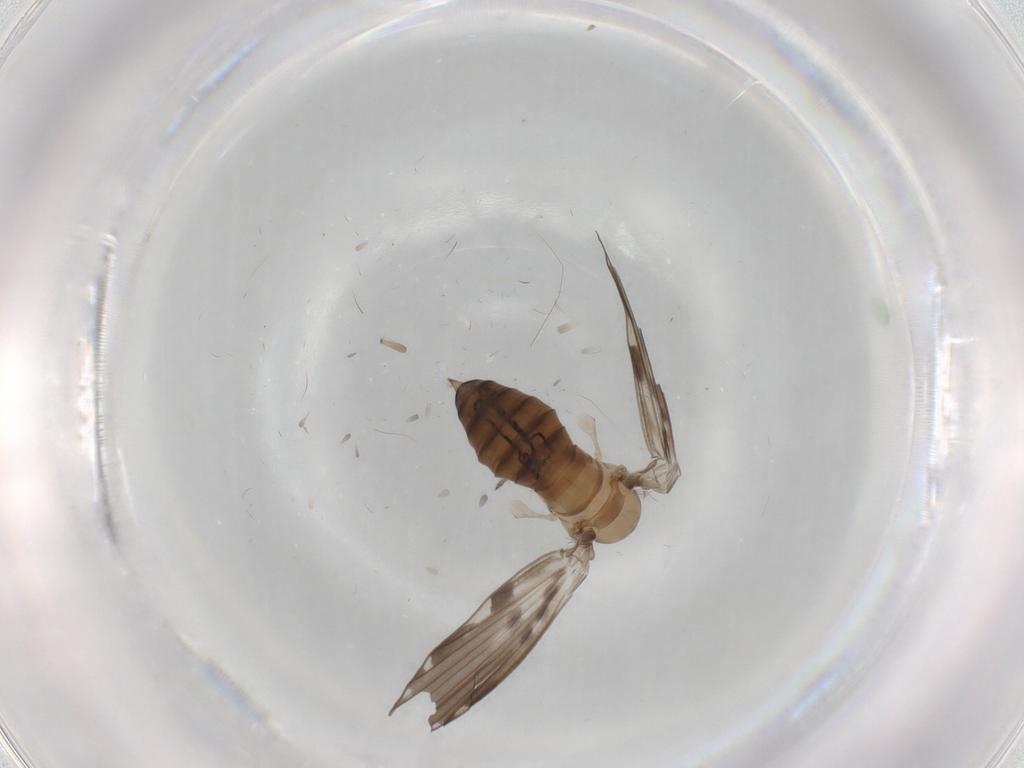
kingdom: Animalia
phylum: Arthropoda
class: Insecta
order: Diptera
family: Psychodidae
